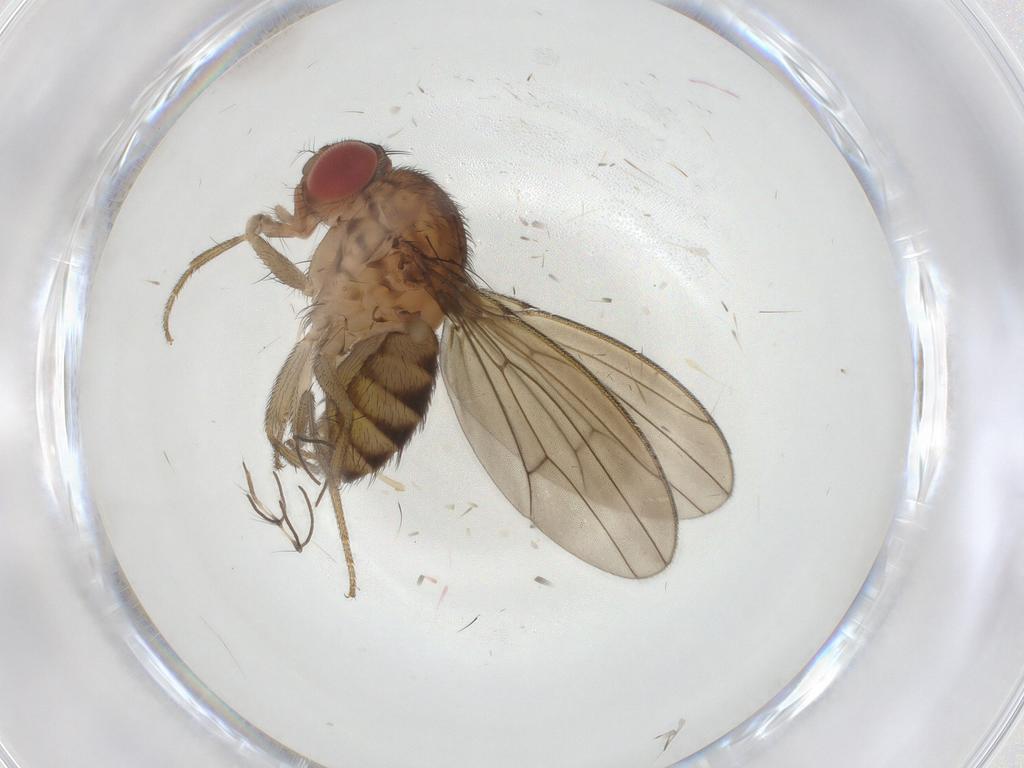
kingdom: Animalia
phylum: Arthropoda
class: Insecta
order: Diptera
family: Drosophilidae
